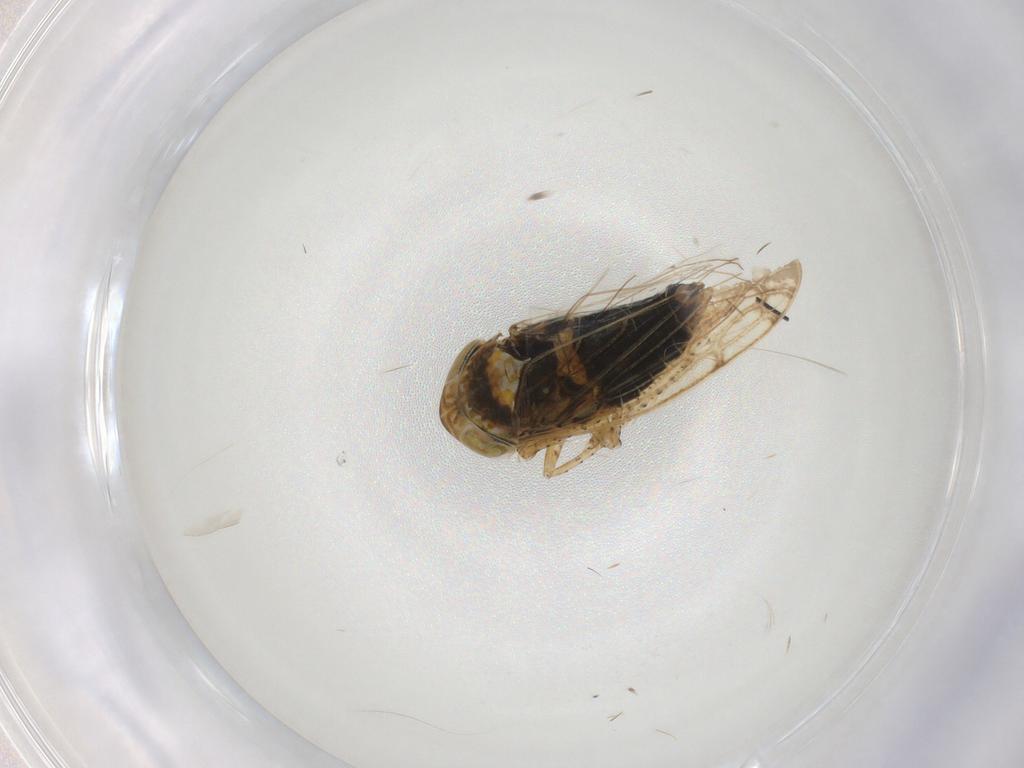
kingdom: Animalia
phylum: Arthropoda
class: Insecta
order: Hemiptera
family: Cicadellidae
